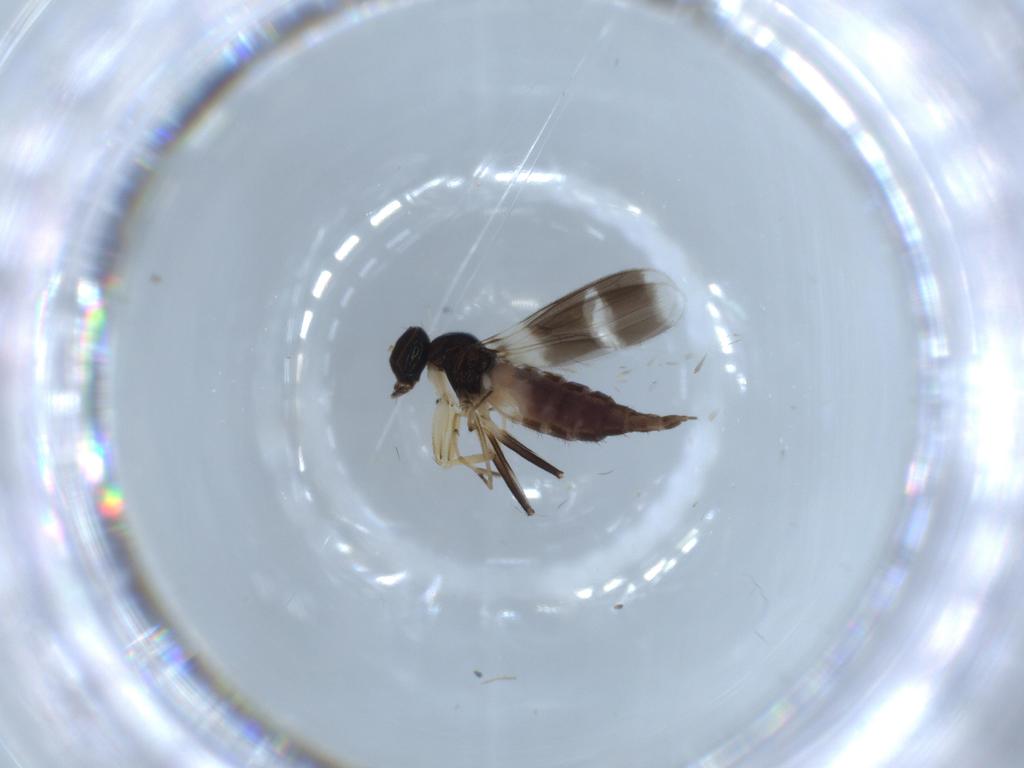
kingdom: Animalia
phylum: Arthropoda
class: Insecta
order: Diptera
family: Hybotidae
